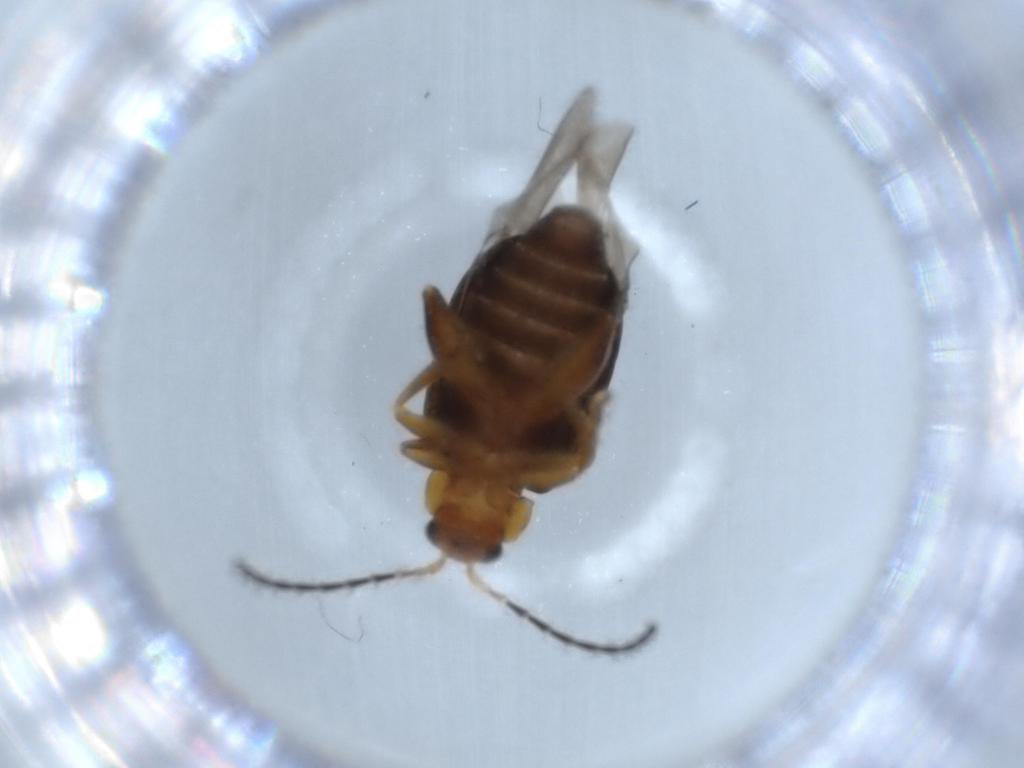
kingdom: Animalia
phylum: Arthropoda
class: Insecta
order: Coleoptera
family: Chrysomelidae
